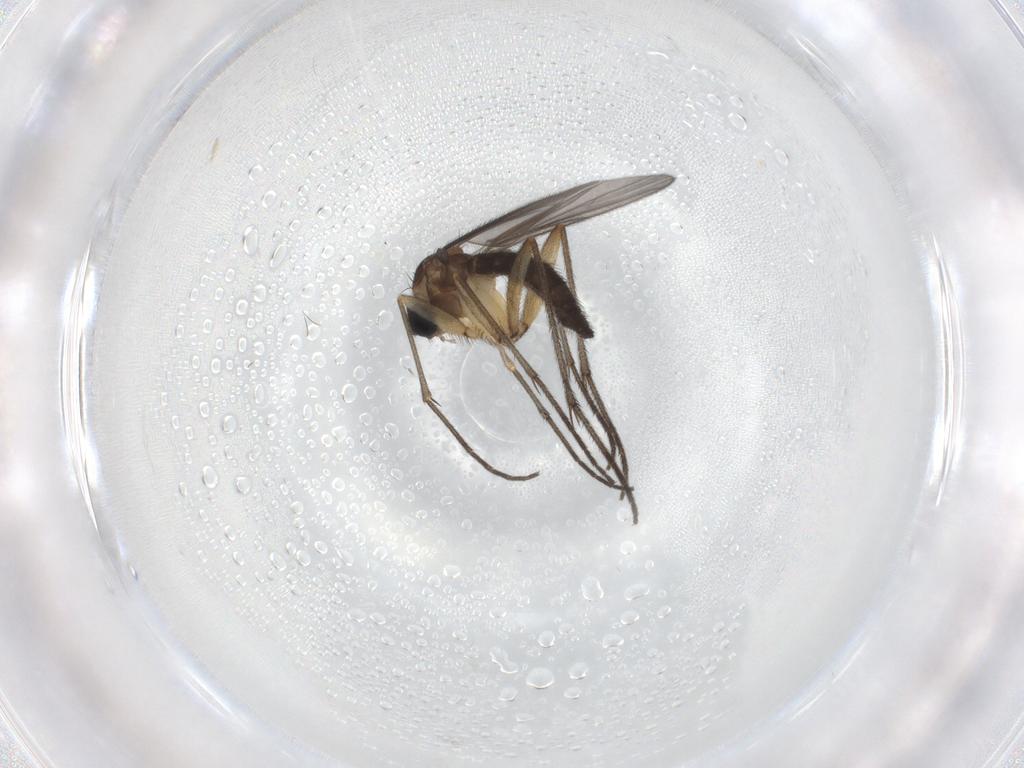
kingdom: Animalia
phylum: Arthropoda
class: Insecta
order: Diptera
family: Sciaridae
